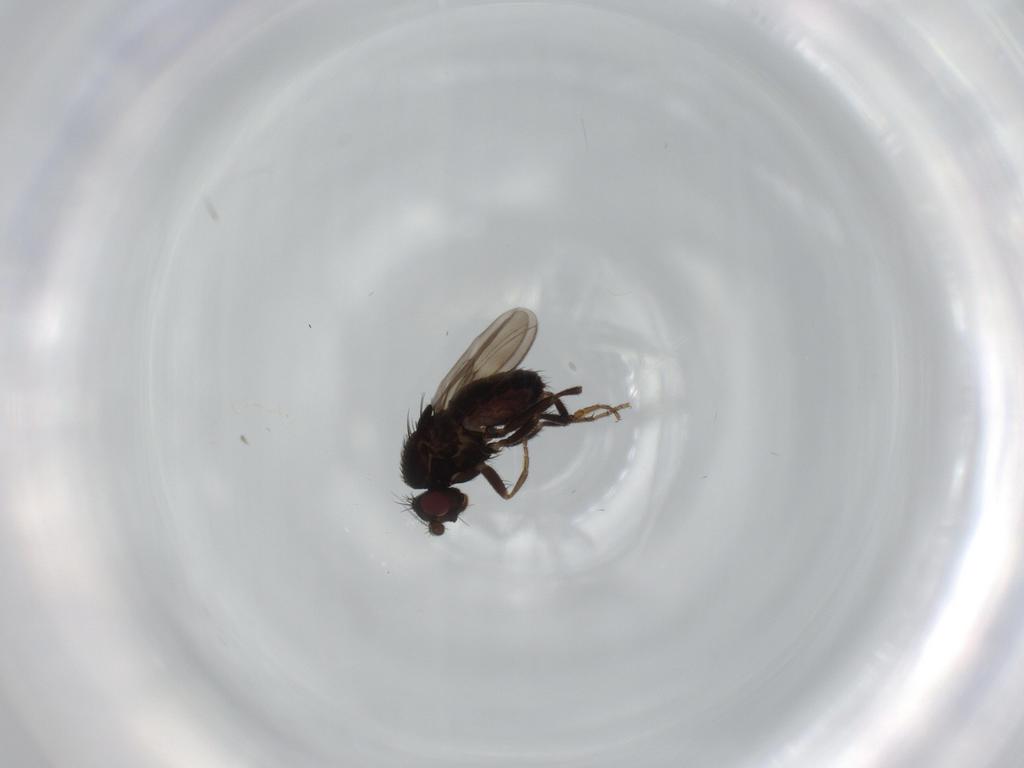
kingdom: Animalia
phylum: Arthropoda
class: Insecta
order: Diptera
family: Sphaeroceridae
